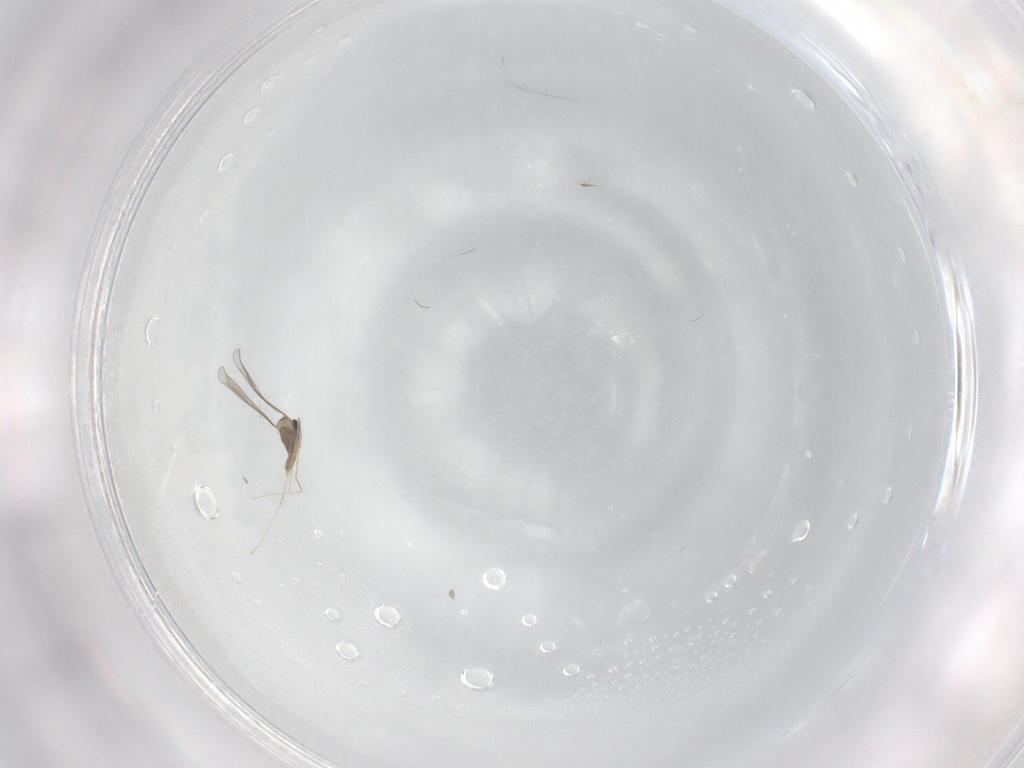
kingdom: Animalia
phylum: Arthropoda
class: Insecta
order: Diptera
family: Cecidomyiidae
